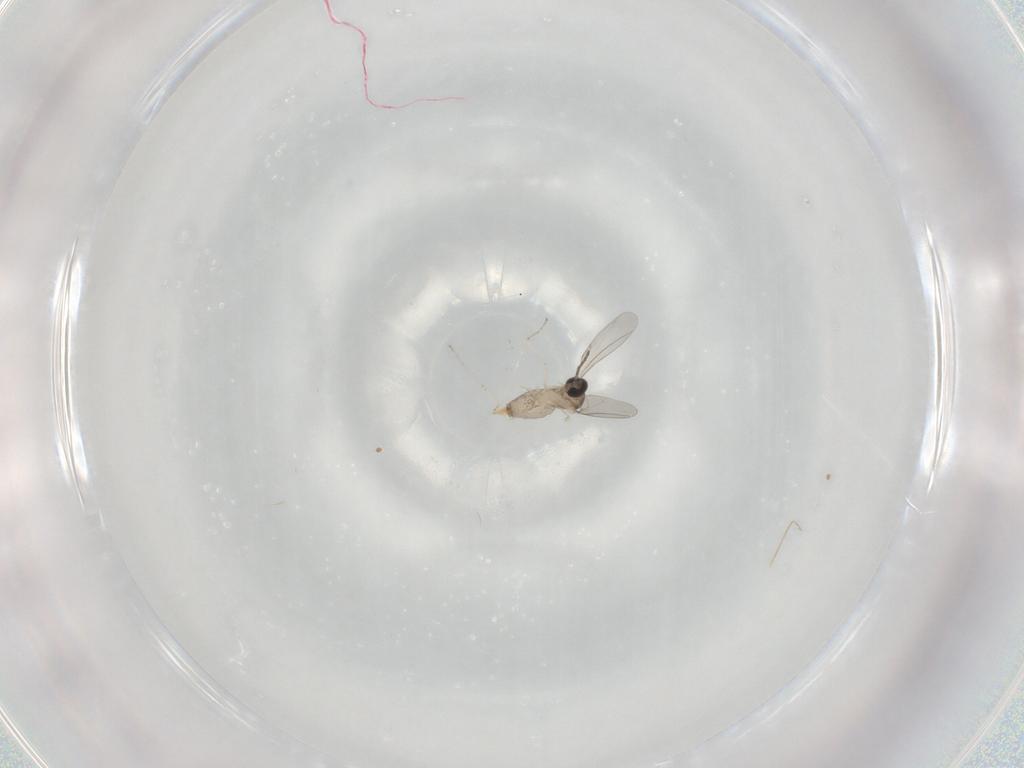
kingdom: Animalia
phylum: Arthropoda
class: Insecta
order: Diptera
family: Cecidomyiidae
